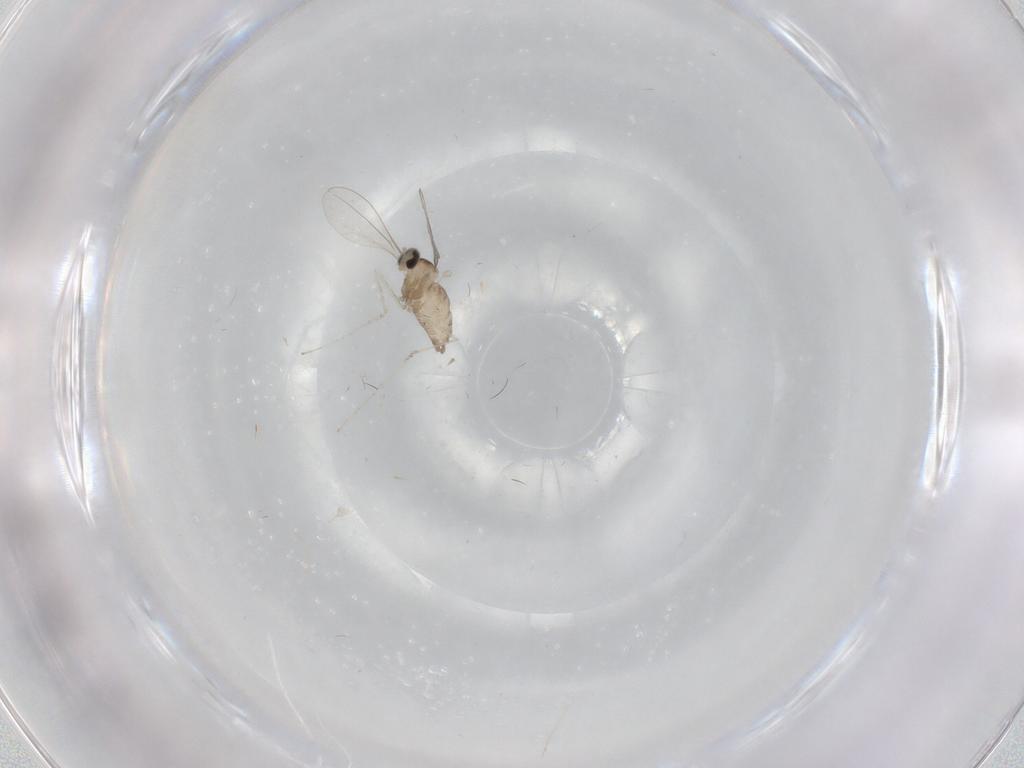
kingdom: Animalia
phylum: Arthropoda
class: Insecta
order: Diptera
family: Cecidomyiidae
